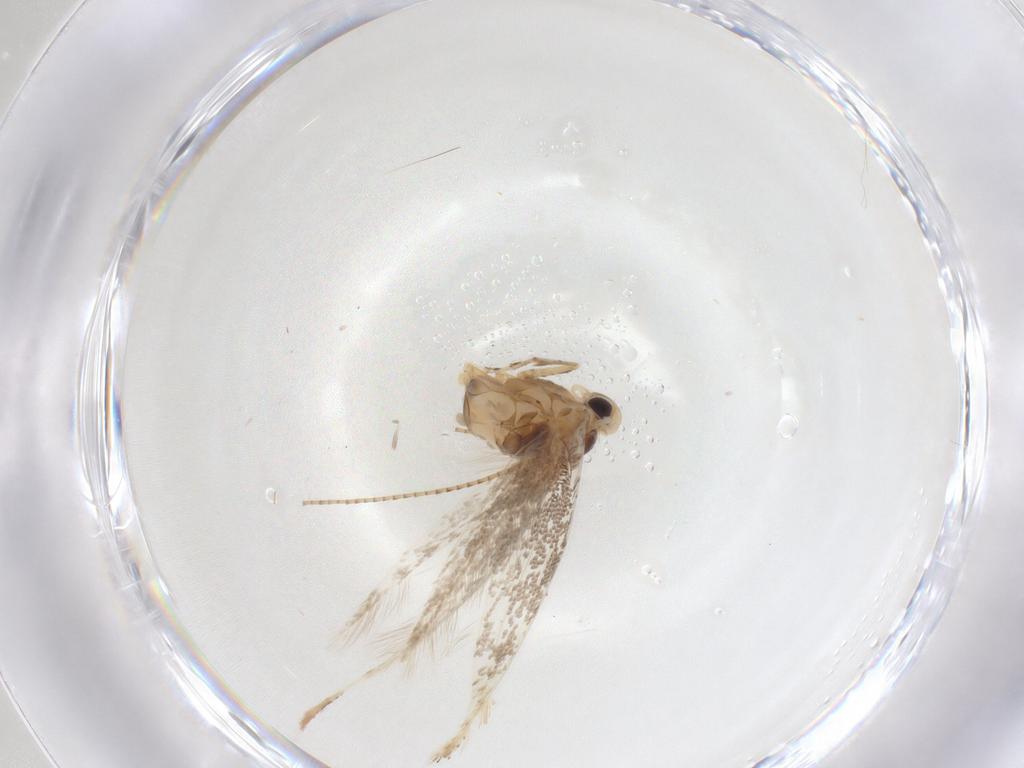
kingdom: Animalia
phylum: Arthropoda
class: Insecta
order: Lepidoptera
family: Gracillariidae
